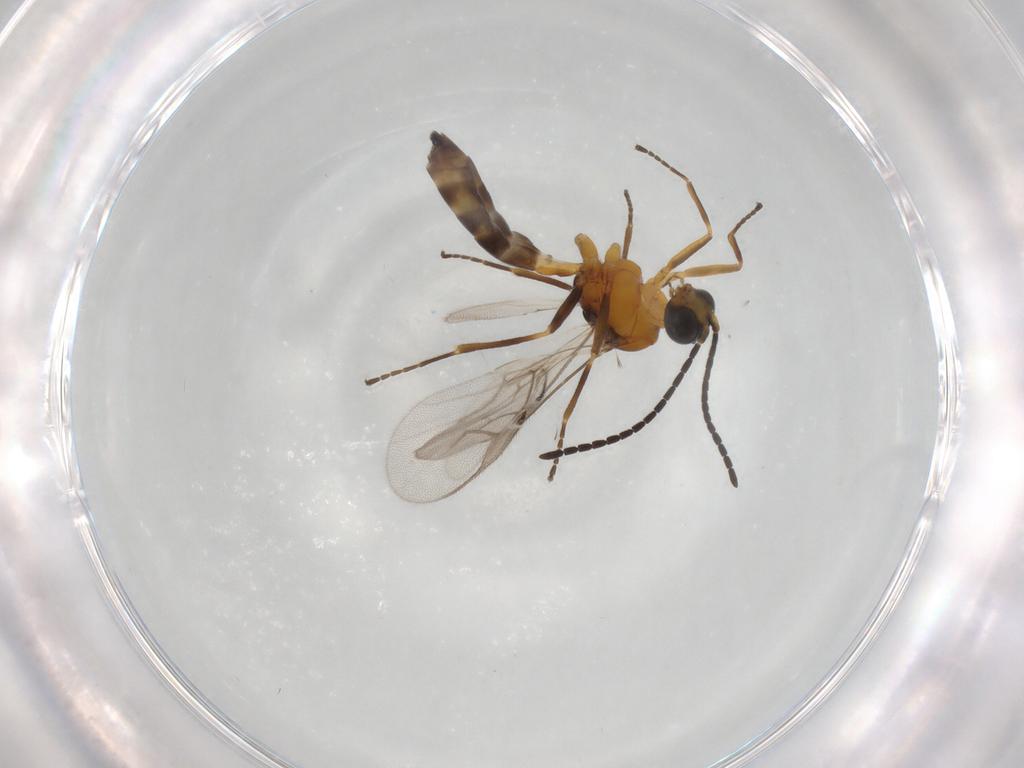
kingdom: Animalia
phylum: Arthropoda
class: Insecta
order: Hymenoptera
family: Braconidae
